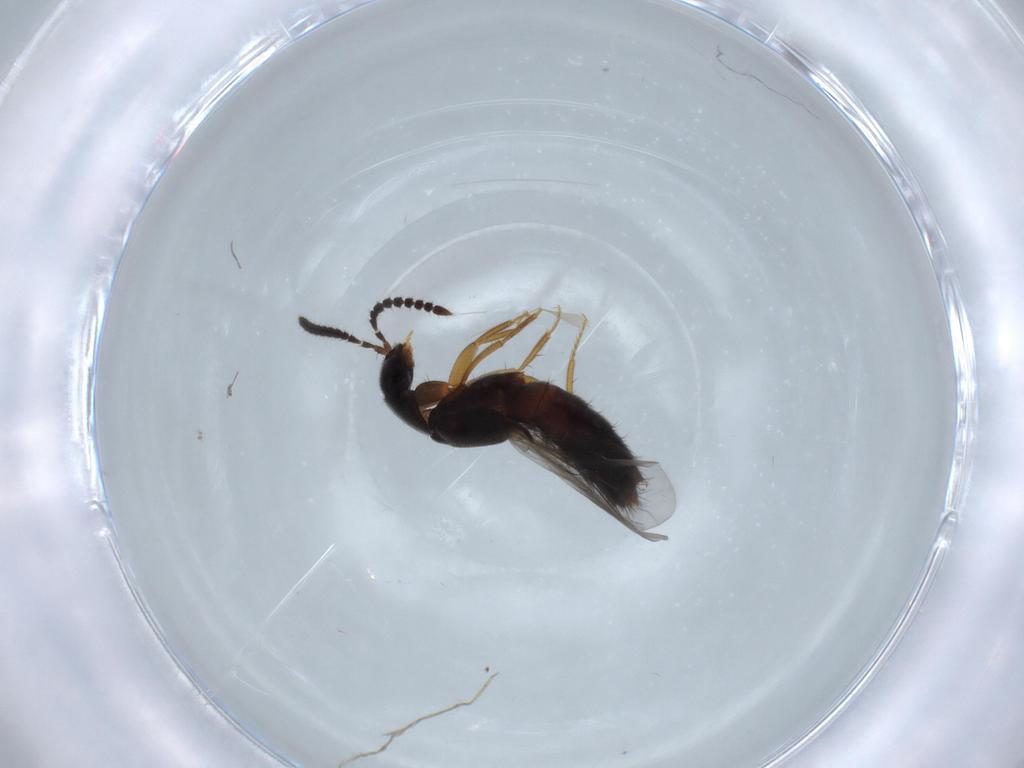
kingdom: Animalia
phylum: Arthropoda
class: Insecta
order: Coleoptera
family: Staphylinidae
